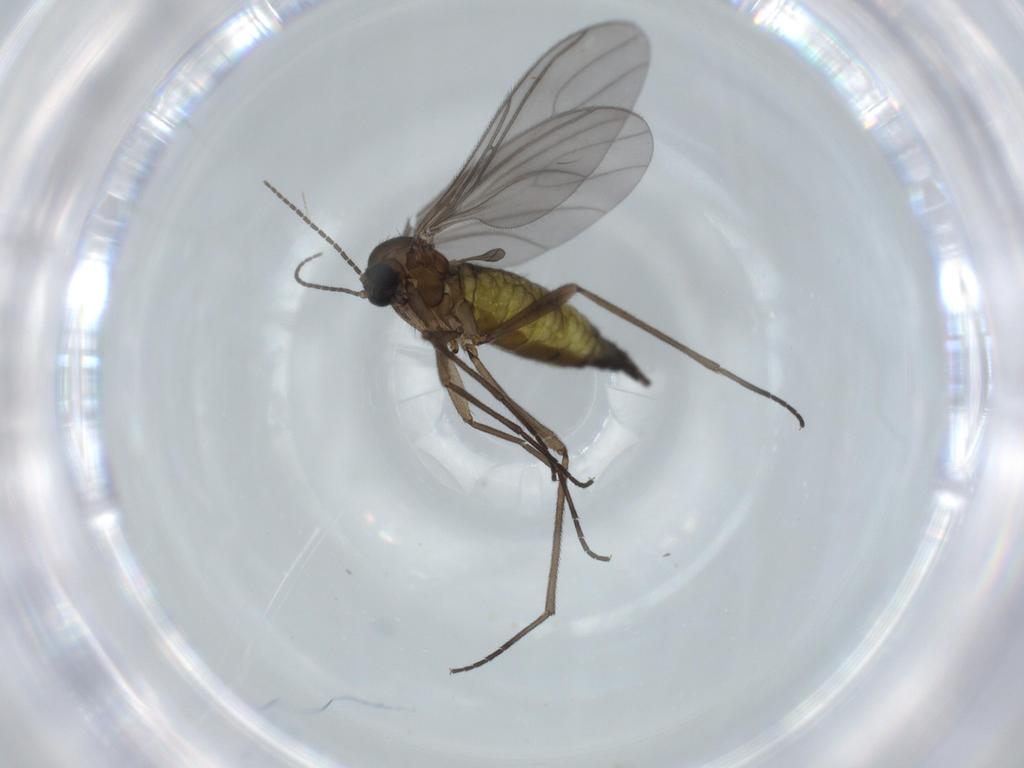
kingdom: Animalia
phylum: Arthropoda
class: Insecta
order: Diptera
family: Sciaridae
